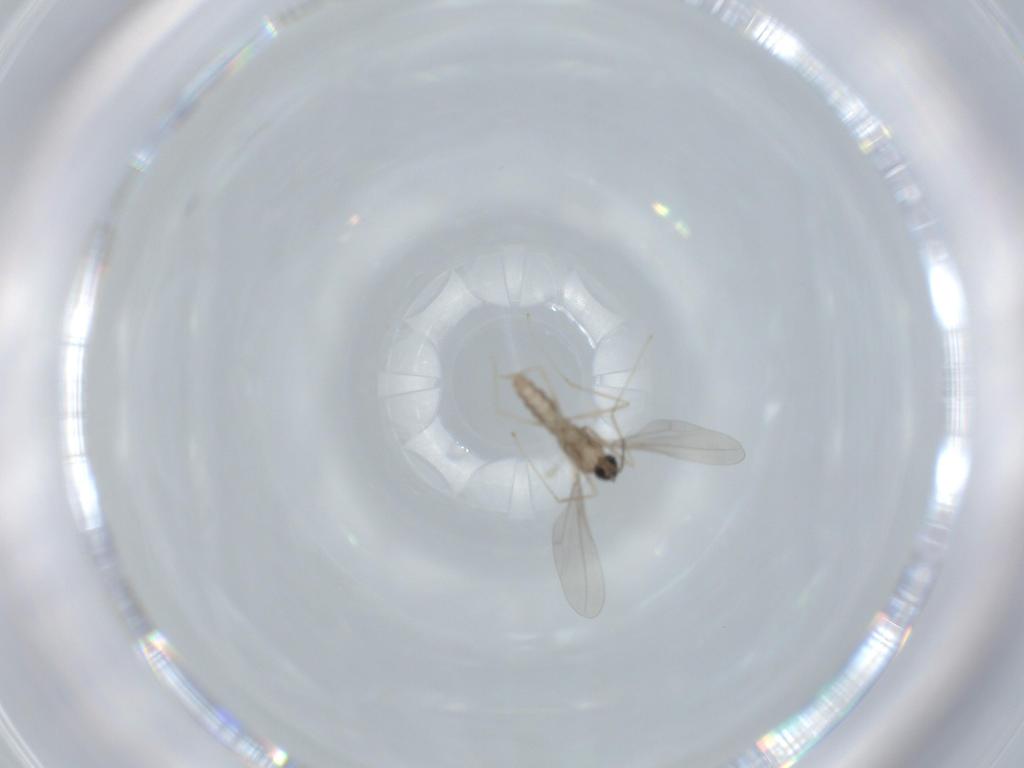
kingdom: Animalia
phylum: Arthropoda
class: Insecta
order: Diptera
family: Cecidomyiidae
